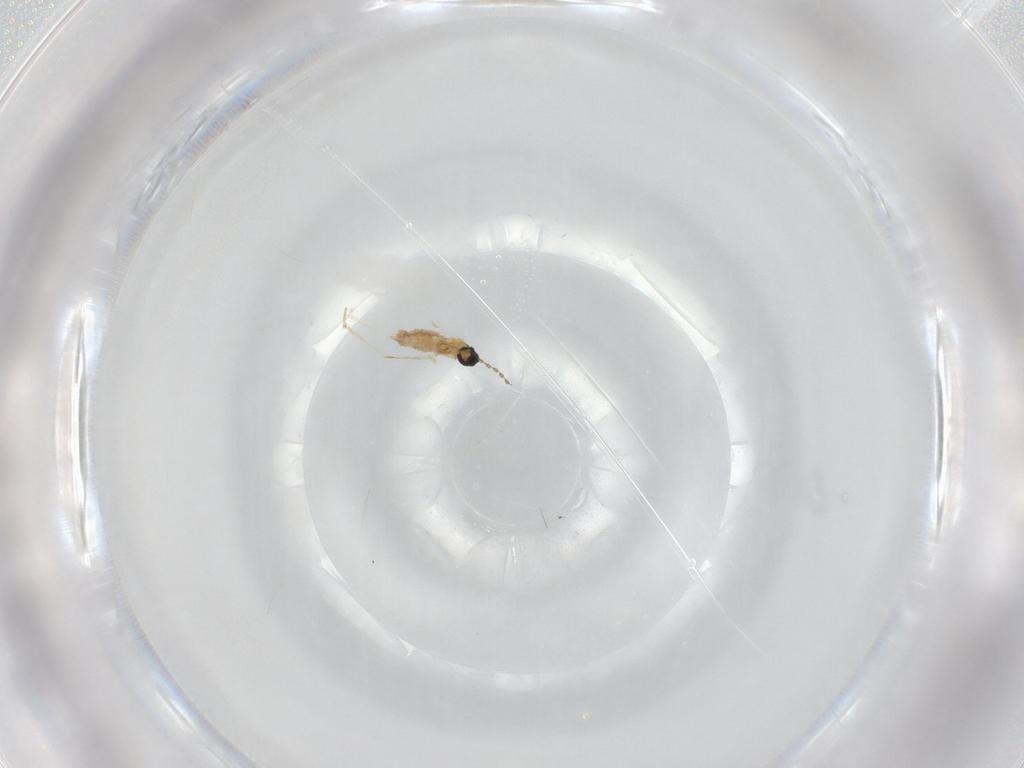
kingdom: Animalia
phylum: Arthropoda
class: Insecta
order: Diptera
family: Cecidomyiidae
